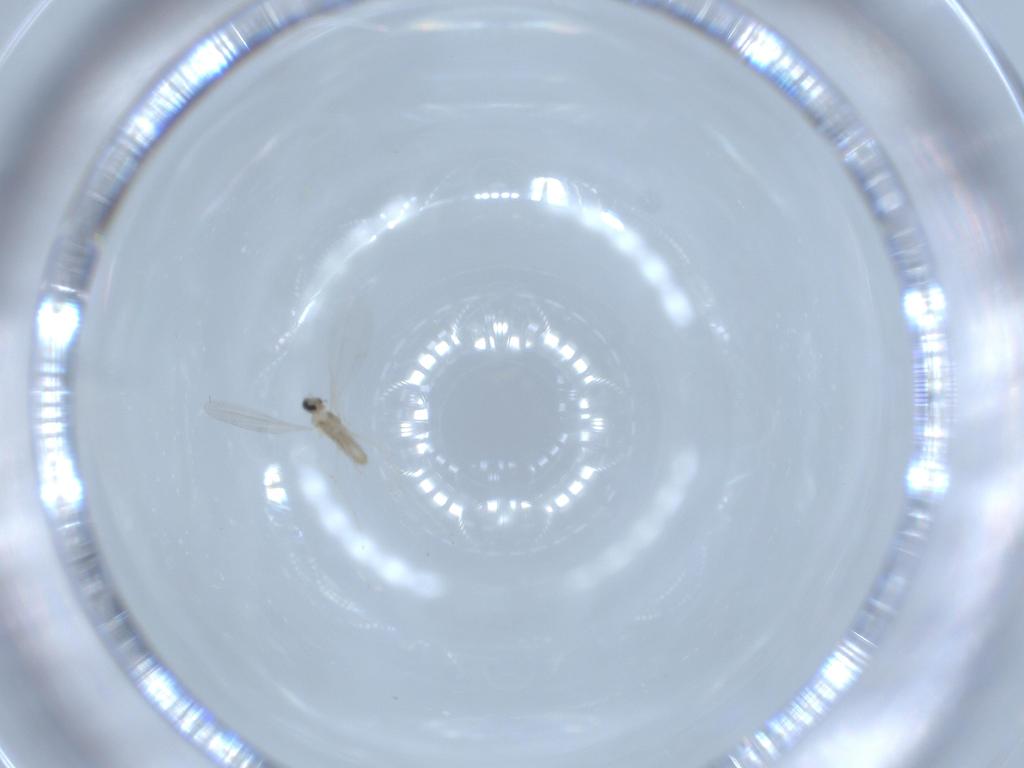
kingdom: Animalia
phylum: Arthropoda
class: Insecta
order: Diptera
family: Cecidomyiidae
